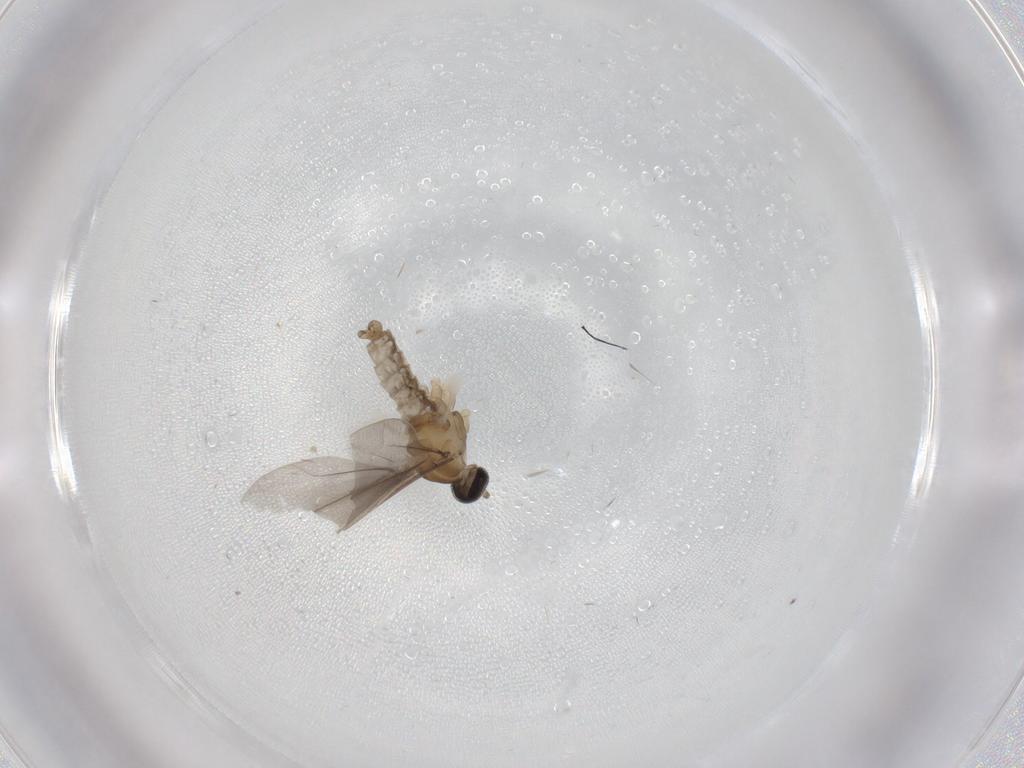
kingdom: Animalia
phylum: Arthropoda
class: Insecta
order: Diptera
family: Cecidomyiidae
